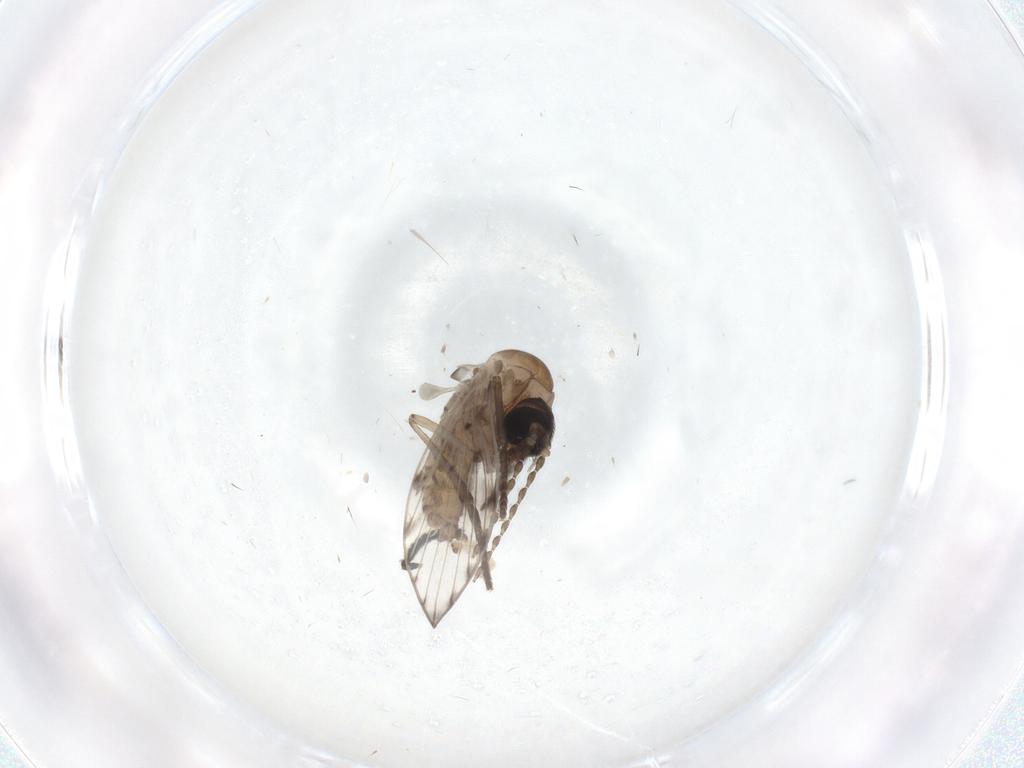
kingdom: Animalia
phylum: Arthropoda
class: Insecta
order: Diptera
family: Psychodidae
